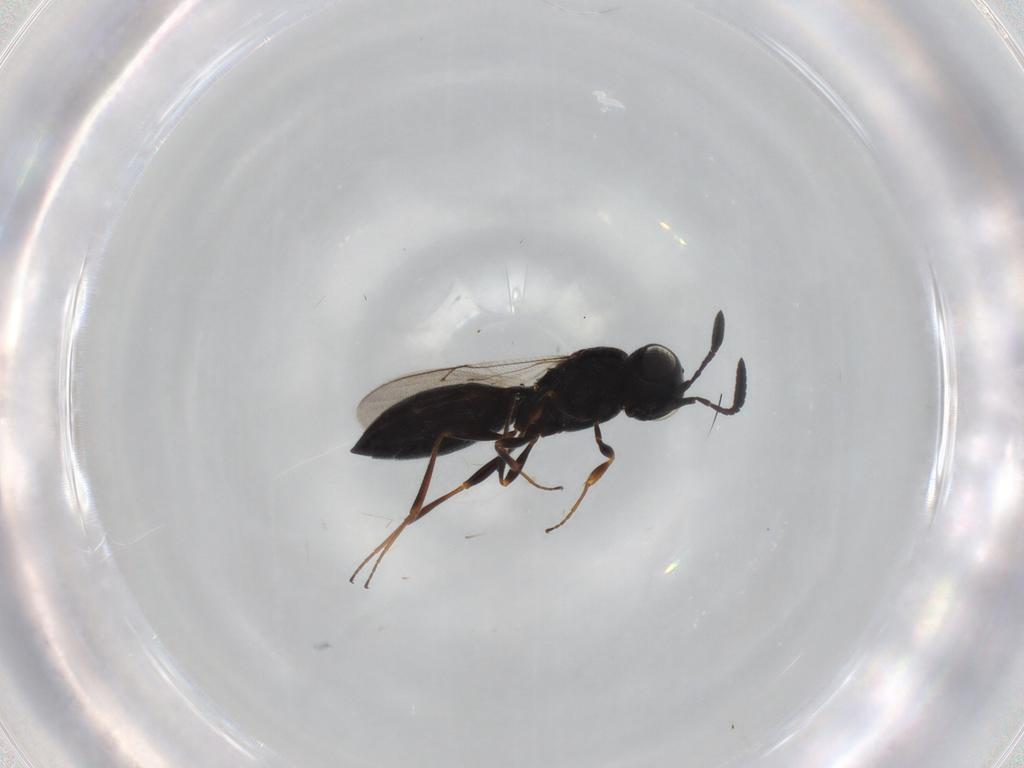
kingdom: Animalia
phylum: Arthropoda
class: Insecta
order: Hymenoptera
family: Scelionidae
